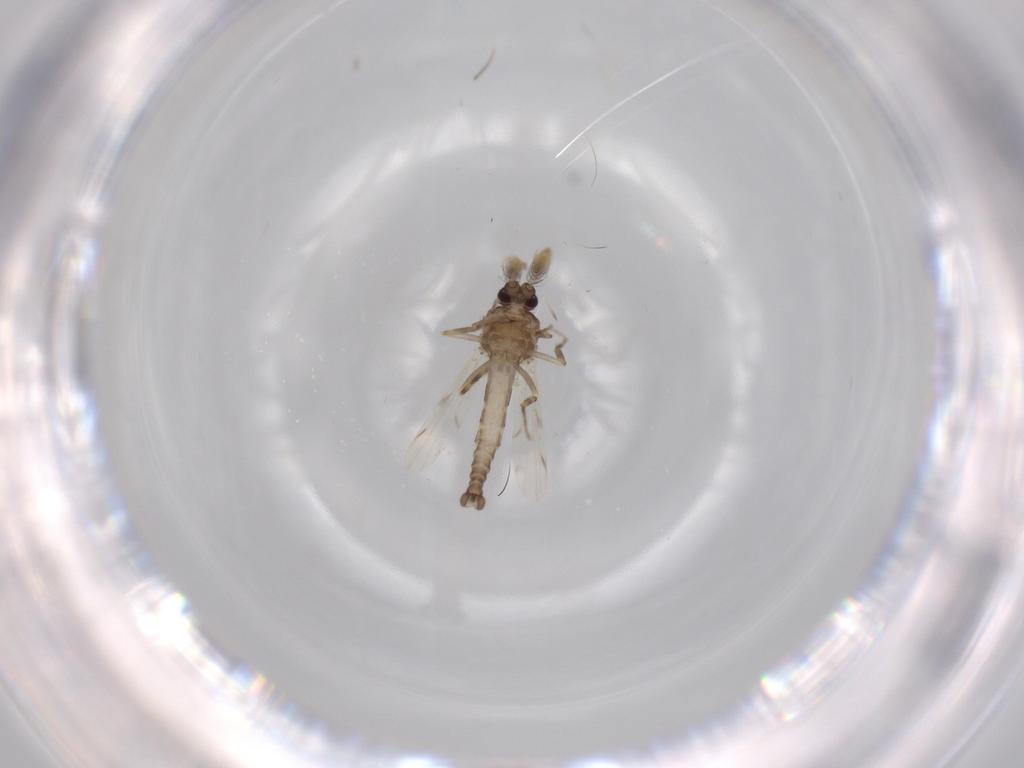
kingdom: Animalia
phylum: Arthropoda
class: Insecta
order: Diptera
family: Ceratopogonidae
